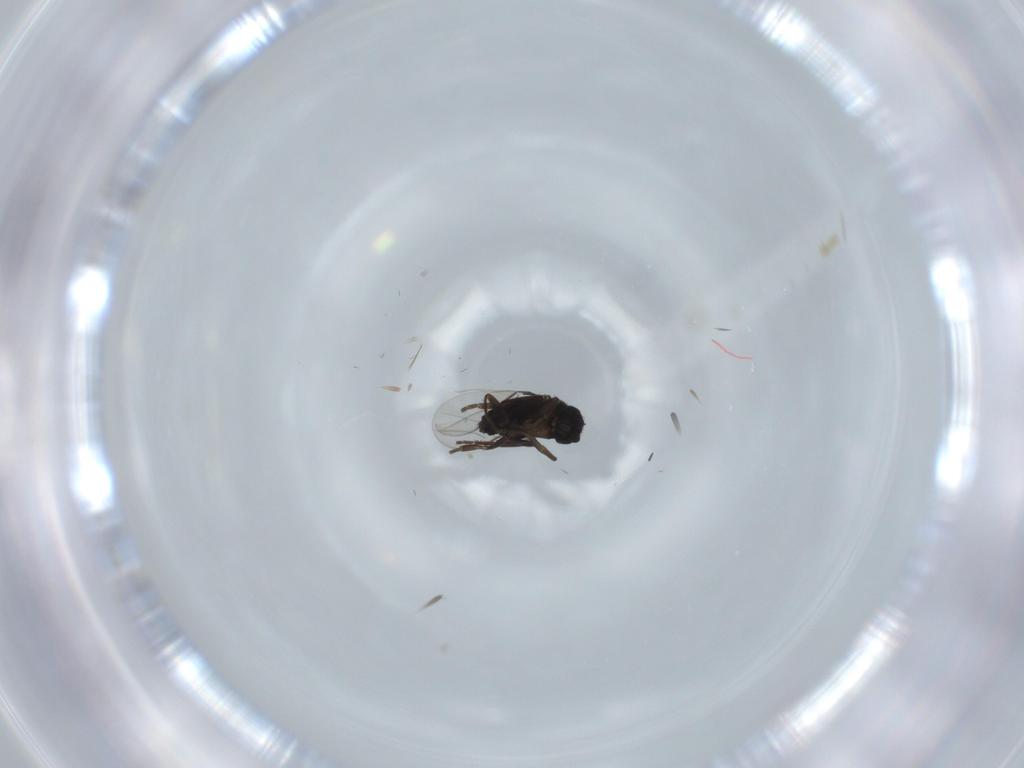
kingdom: Animalia
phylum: Arthropoda
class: Insecta
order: Diptera
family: Phoridae
